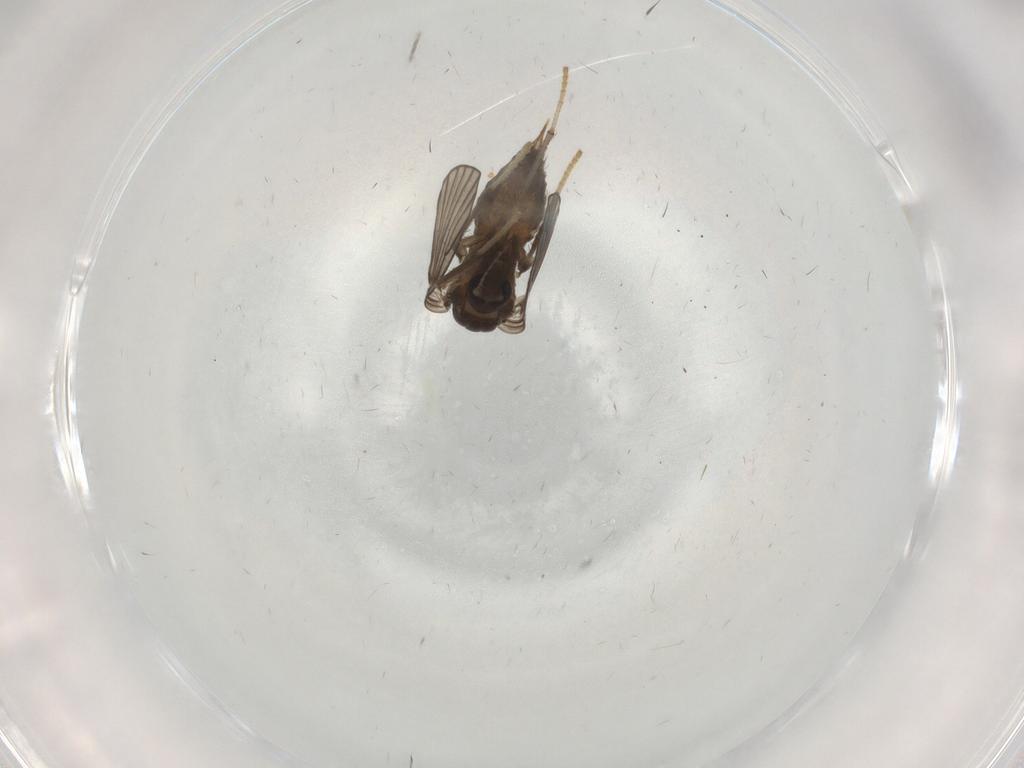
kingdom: Animalia
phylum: Arthropoda
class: Insecta
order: Diptera
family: Psychodidae
